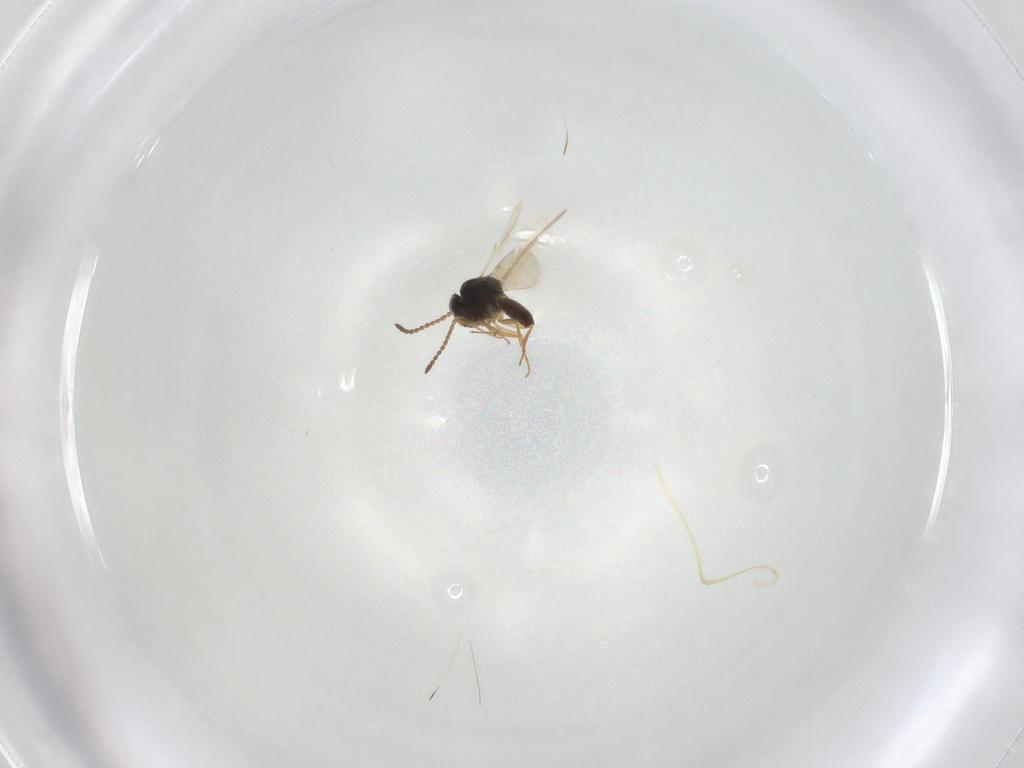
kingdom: Animalia
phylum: Arthropoda
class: Insecta
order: Hymenoptera
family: Scelionidae
